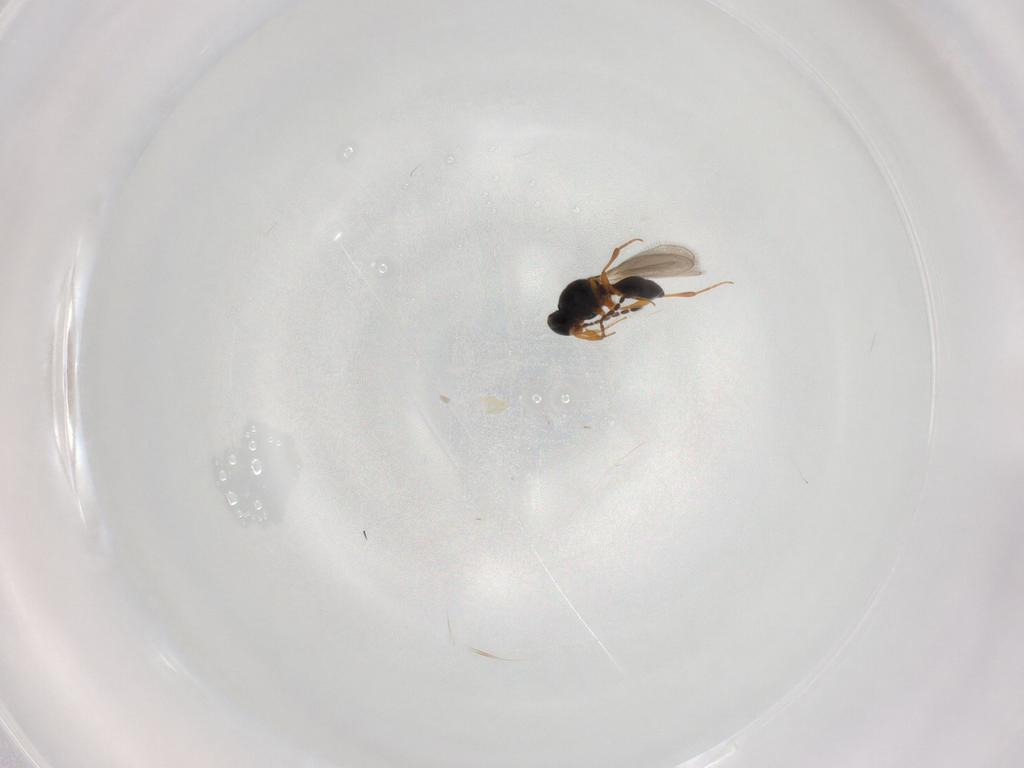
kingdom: Animalia
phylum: Arthropoda
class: Insecta
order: Hymenoptera
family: Platygastridae
